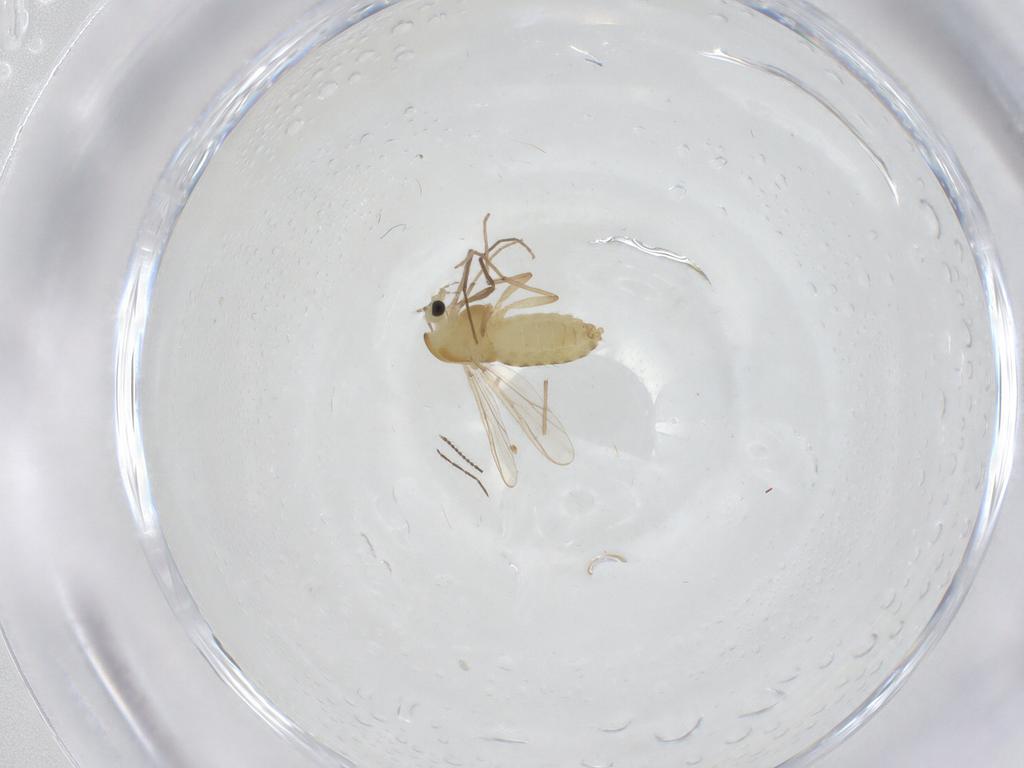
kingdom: Animalia
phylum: Arthropoda
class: Insecta
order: Diptera
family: Chironomidae
